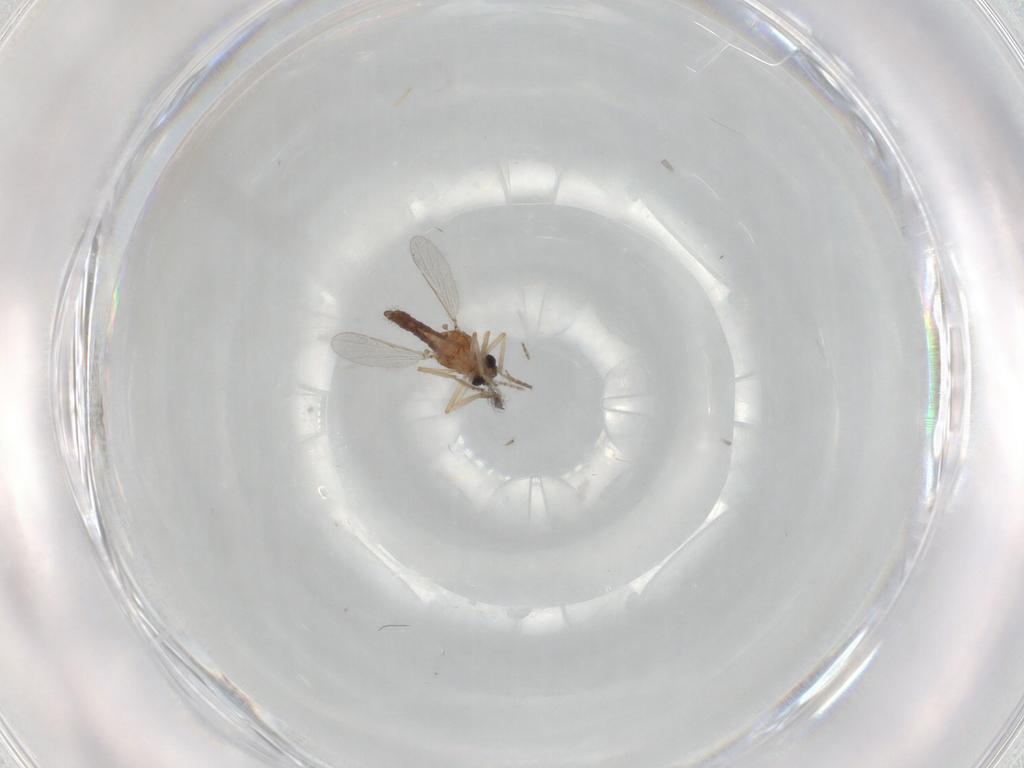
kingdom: Animalia
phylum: Arthropoda
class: Insecta
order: Diptera
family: Ceratopogonidae
